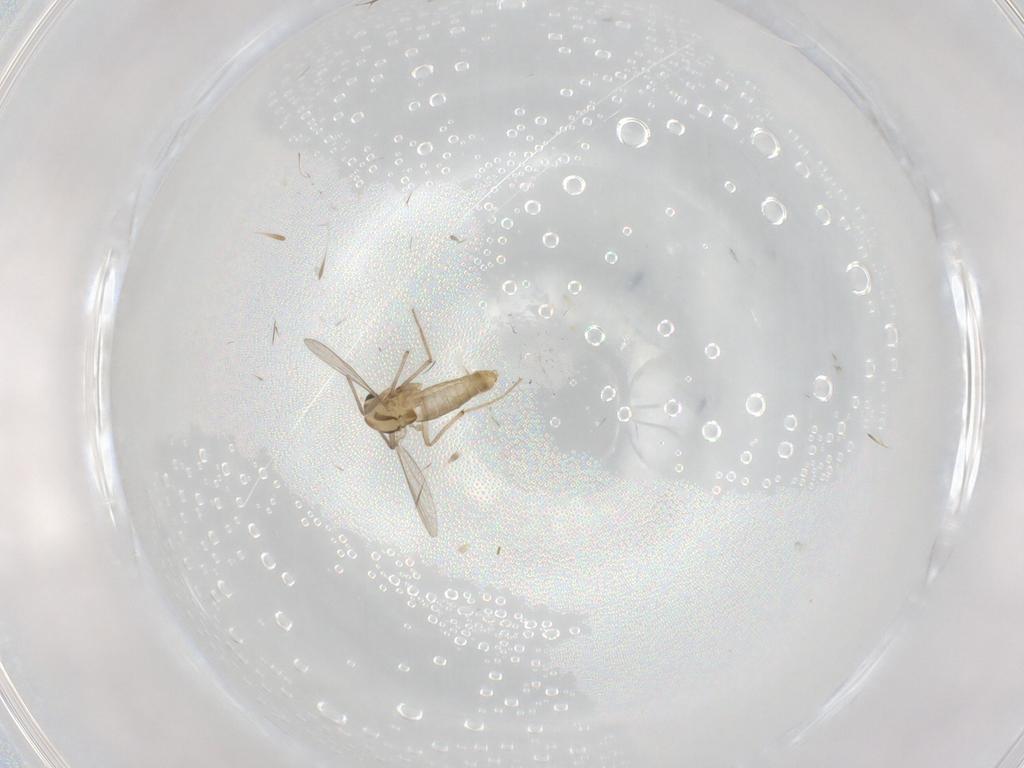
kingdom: Animalia
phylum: Arthropoda
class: Insecta
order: Diptera
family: Chironomidae
